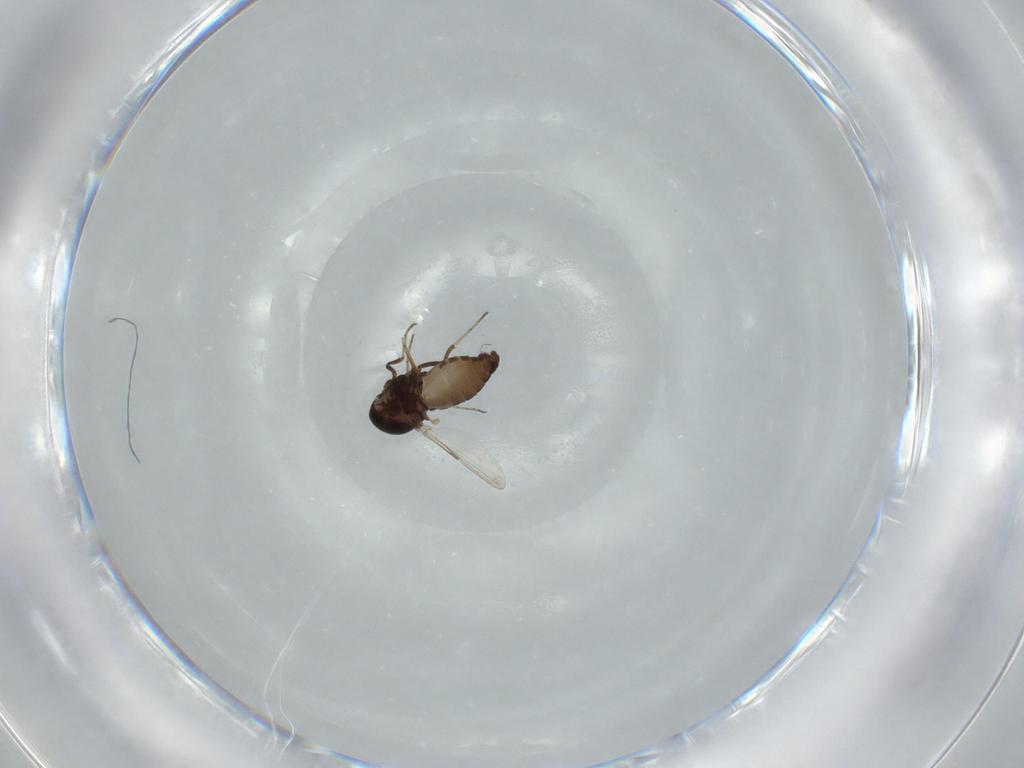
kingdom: Animalia
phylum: Arthropoda
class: Insecta
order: Diptera
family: Chironomidae
